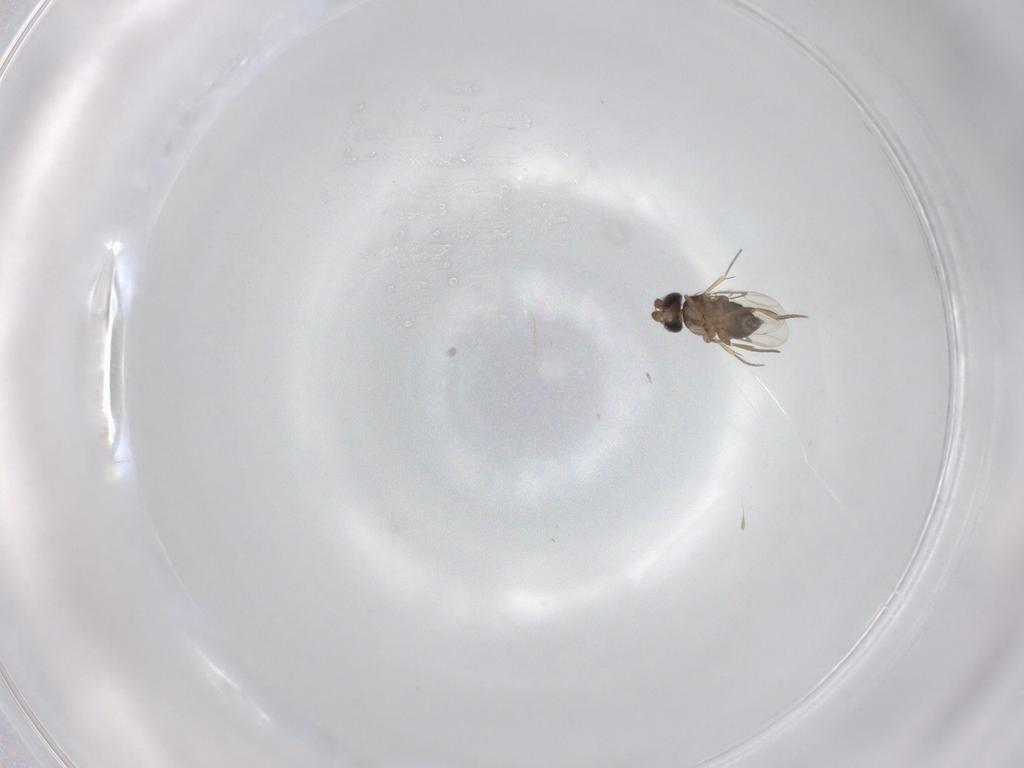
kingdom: Animalia
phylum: Arthropoda
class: Insecta
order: Diptera
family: Phoridae
